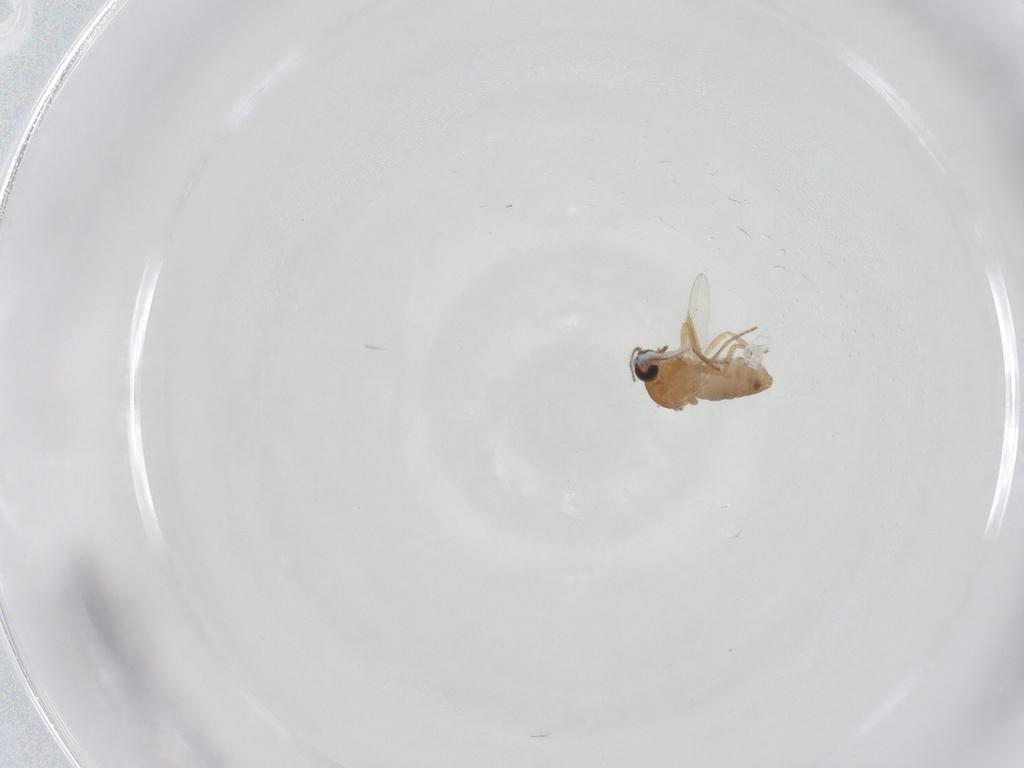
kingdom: Animalia
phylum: Arthropoda
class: Insecta
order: Diptera
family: Ceratopogonidae
